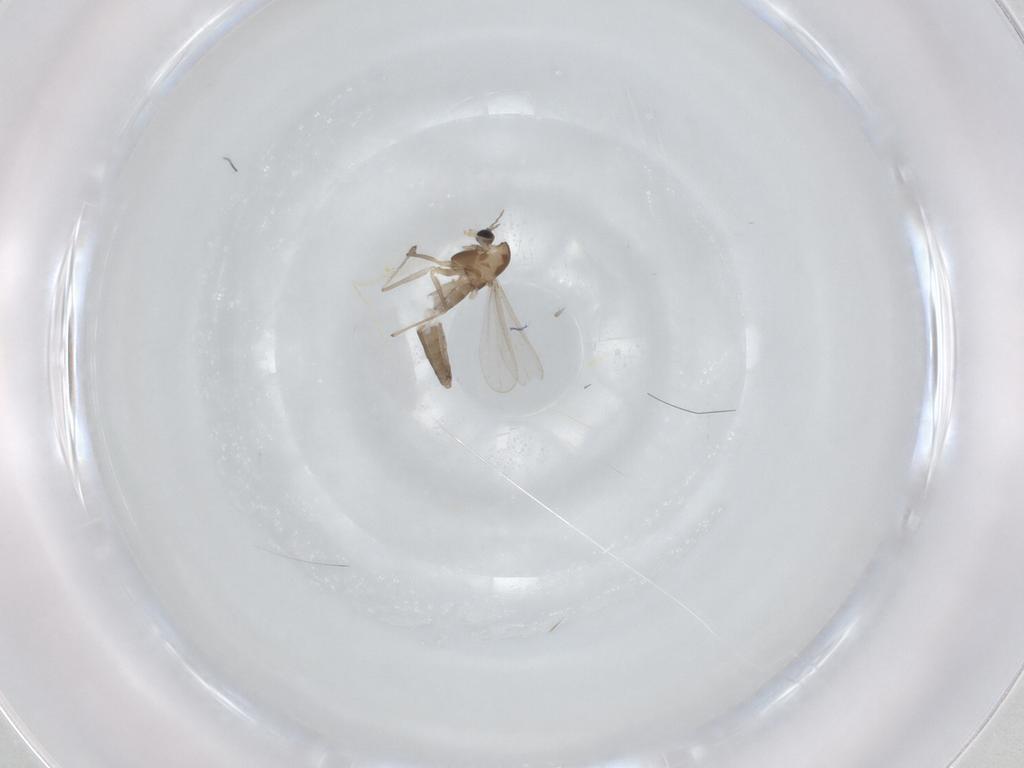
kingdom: Animalia
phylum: Arthropoda
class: Insecta
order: Diptera
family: Chironomidae
